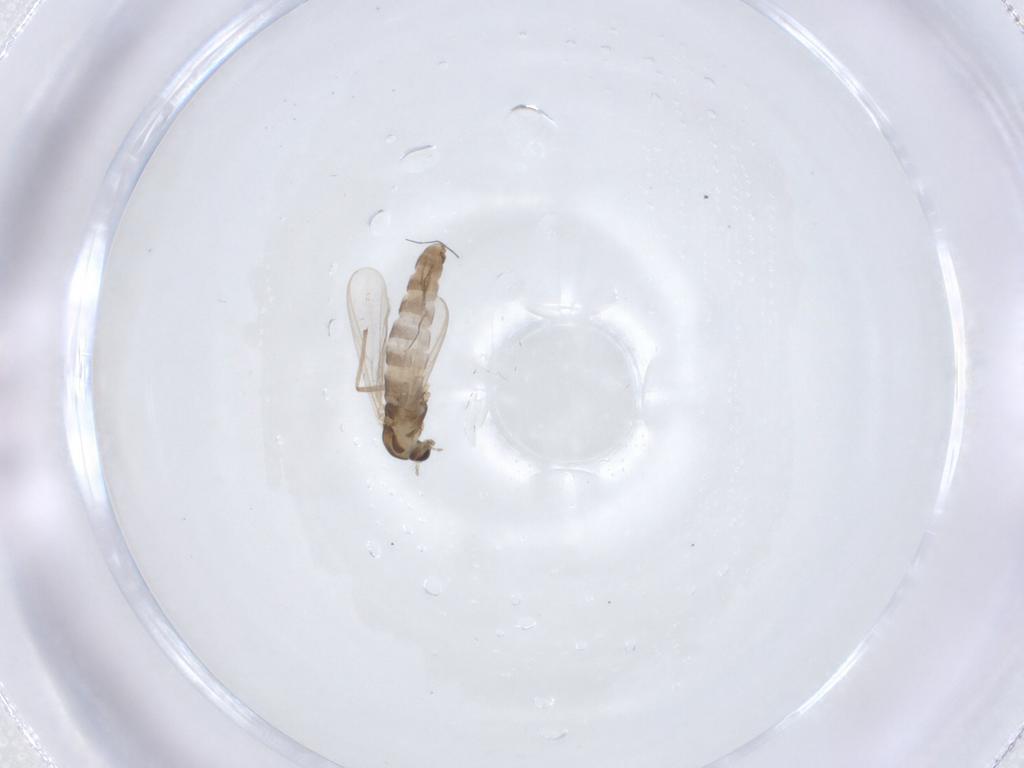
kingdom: Animalia
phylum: Arthropoda
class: Insecta
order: Diptera
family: Chironomidae
